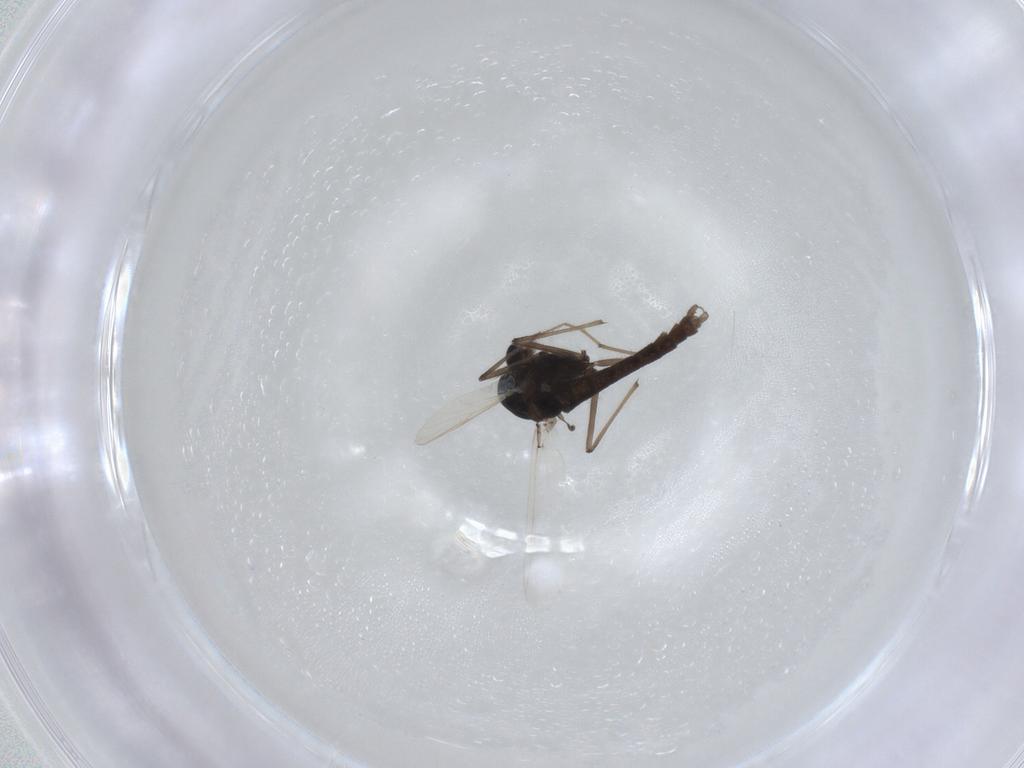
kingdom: Animalia
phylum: Arthropoda
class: Insecta
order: Diptera
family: Chironomidae
